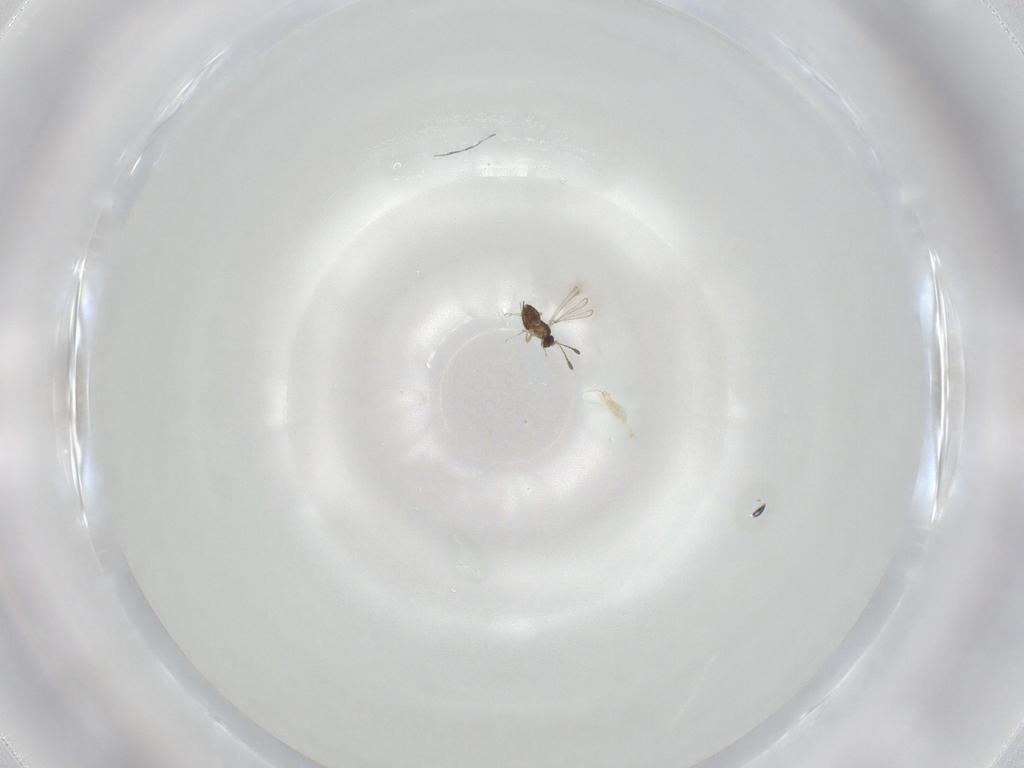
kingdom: Animalia
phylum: Arthropoda
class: Insecta
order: Hymenoptera
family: Eulophidae
